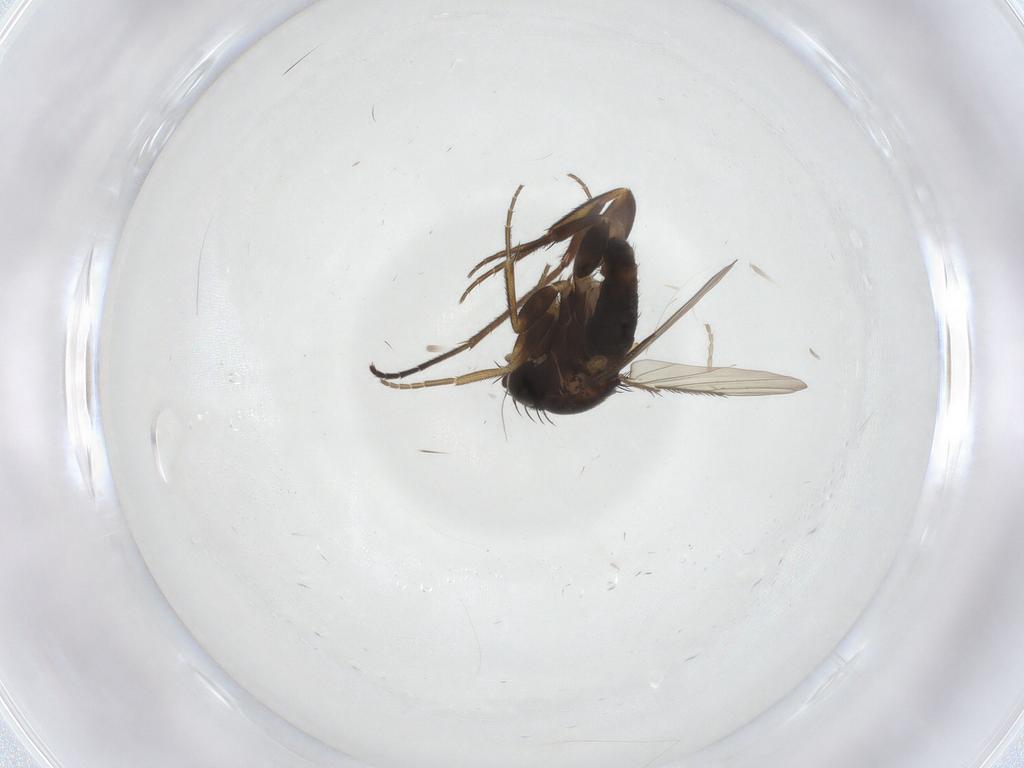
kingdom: Animalia
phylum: Arthropoda
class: Insecta
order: Diptera
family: Phoridae
